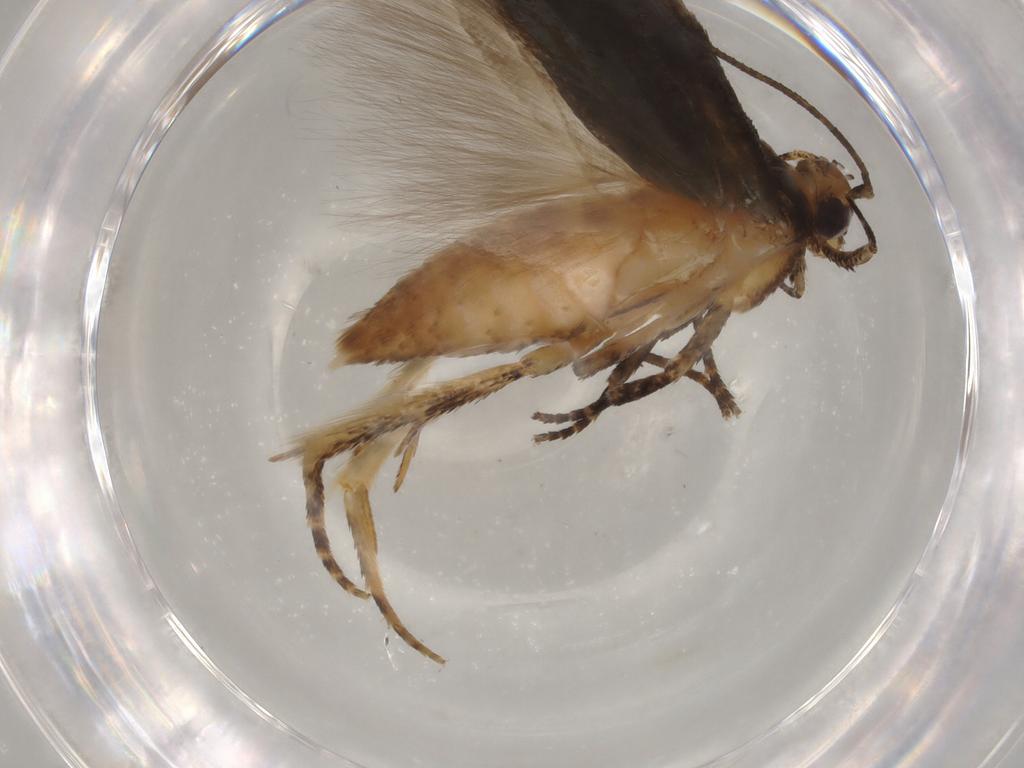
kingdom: Animalia
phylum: Arthropoda
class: Insecta
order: Lepidoptera
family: Gelechiidae
